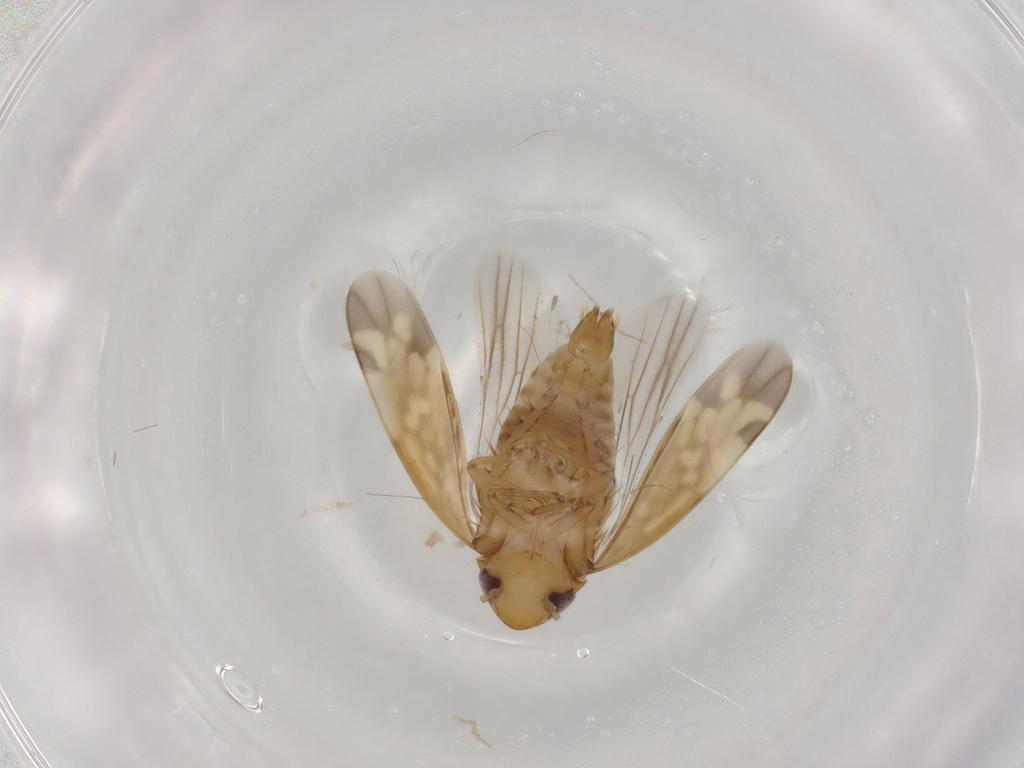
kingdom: Animalia
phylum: Arthropoda
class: Insecta
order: Hemiptera
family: Cicadellidae
